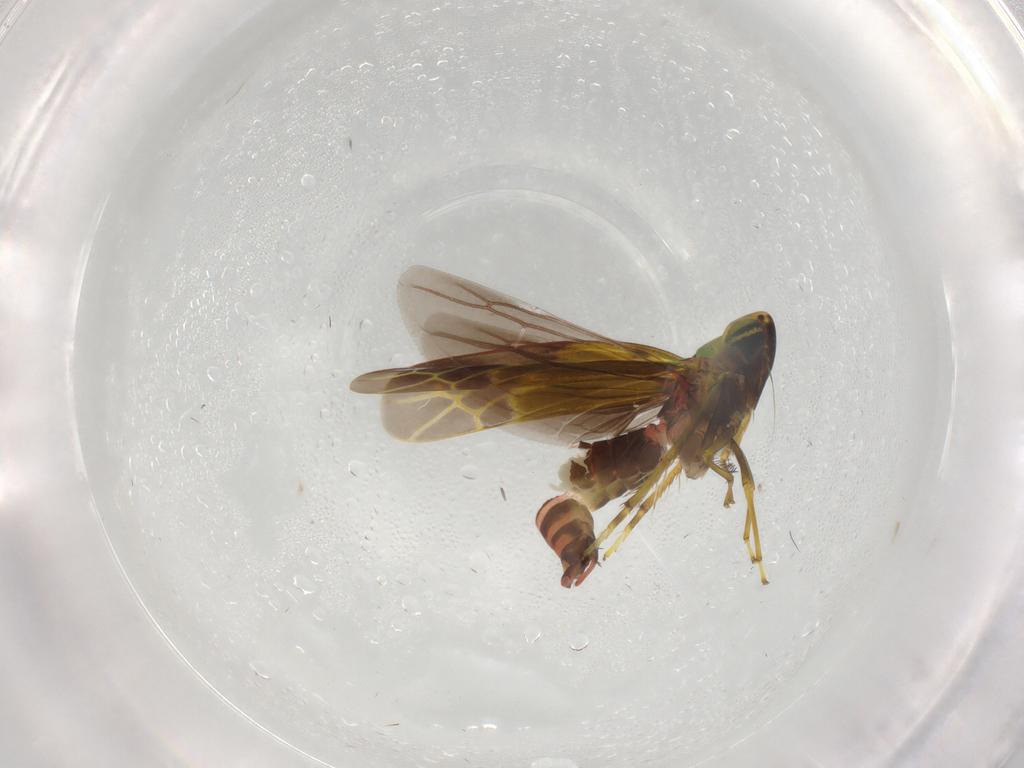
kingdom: Animalia
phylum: Arthropoda
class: Insecta
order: Hemiptera
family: Cicadellidae
